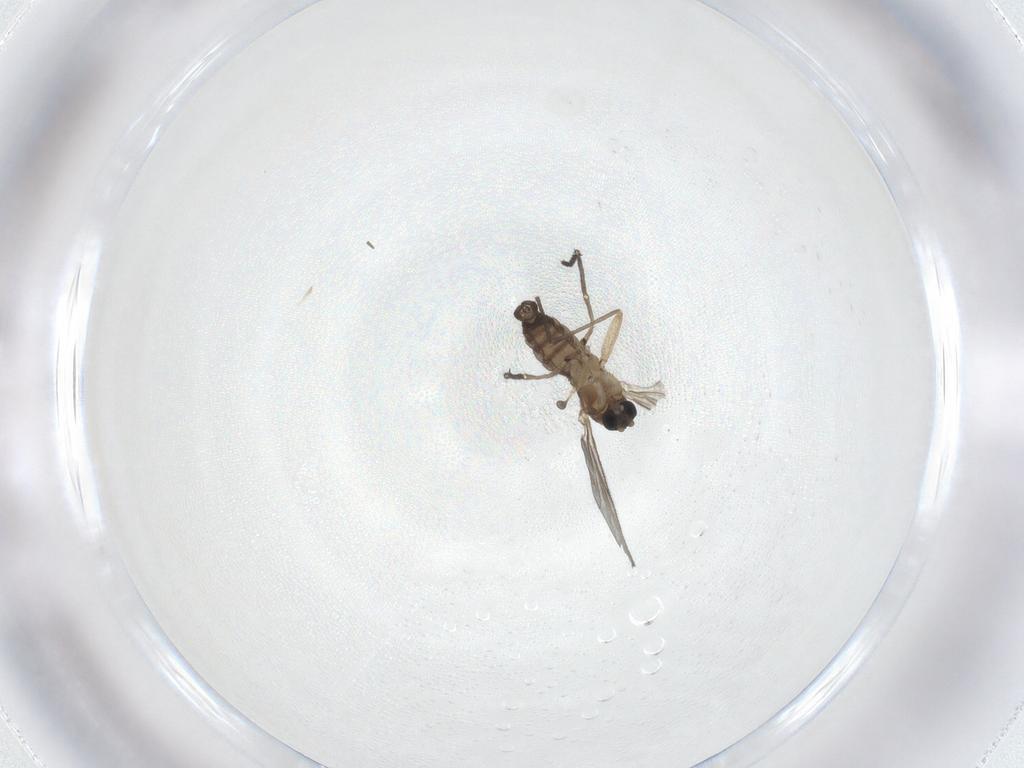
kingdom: Animalia
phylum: Arthropoda
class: Insecta
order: Diptera
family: Sciaridae
